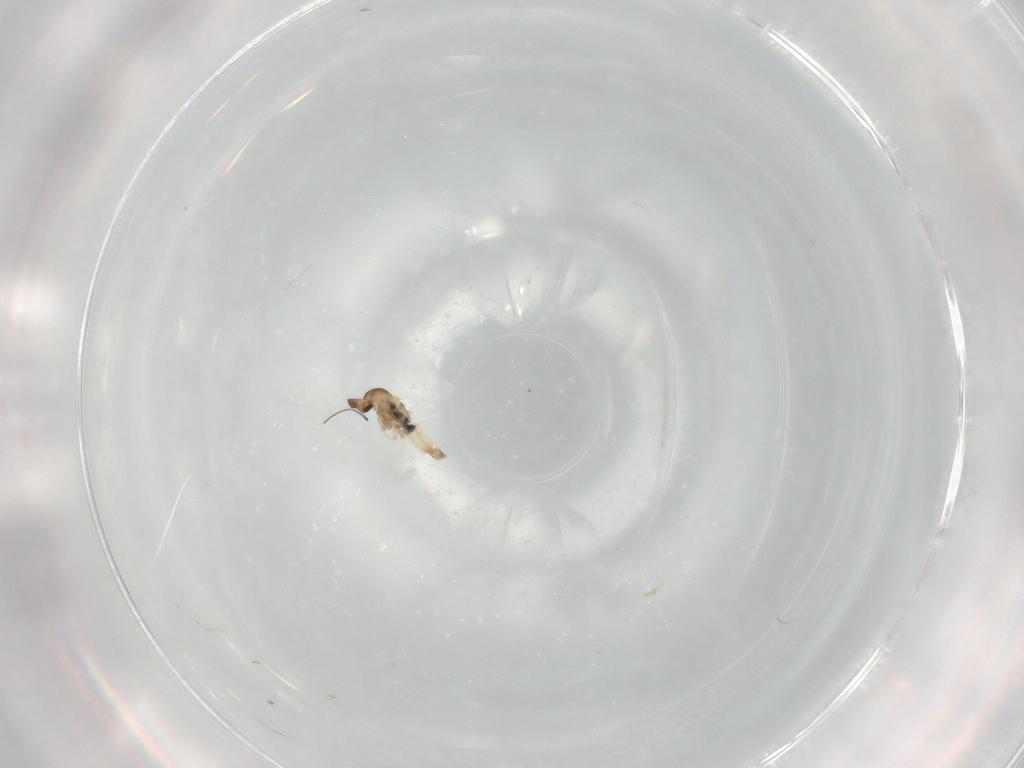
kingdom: Animalia
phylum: Arthropoda
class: Insecta
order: Diptera
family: Cecidomyiidae
